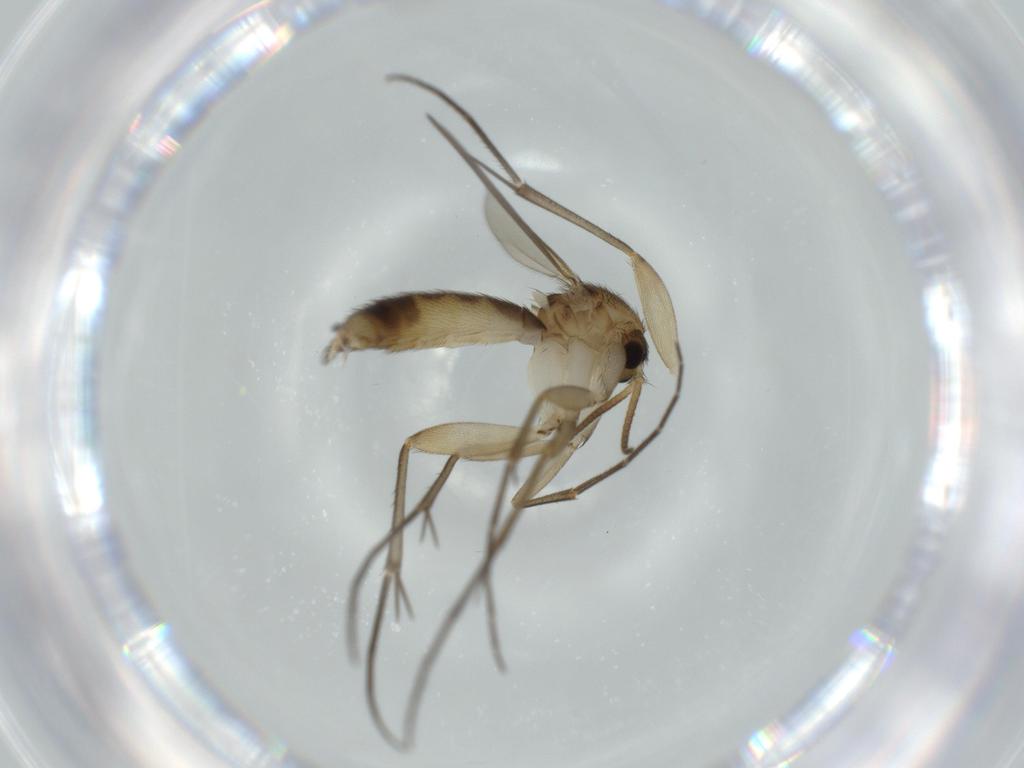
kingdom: Animalia
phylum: Arthropoda
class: Insecta
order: Diptera
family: Mycetophilidae
